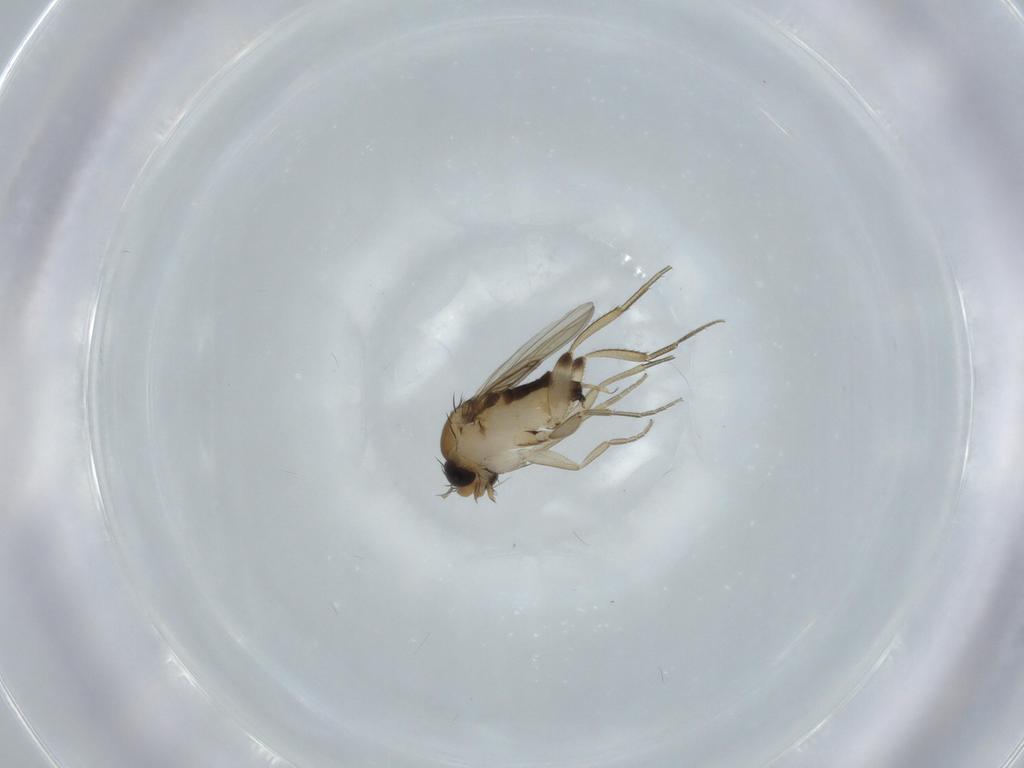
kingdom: Animalia
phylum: Arthropoda
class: Insecta
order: Diptera
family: Phoridae
